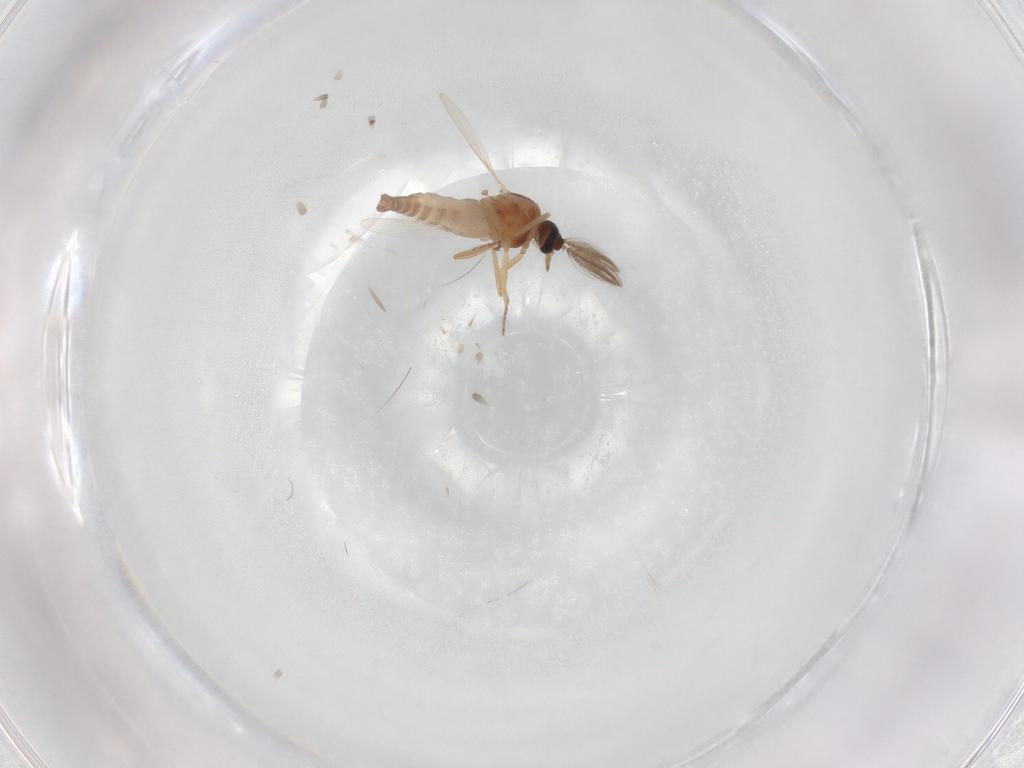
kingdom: Animalia
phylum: Arthropoda
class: Insecta
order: Diptera
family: Ceratopogonidae
